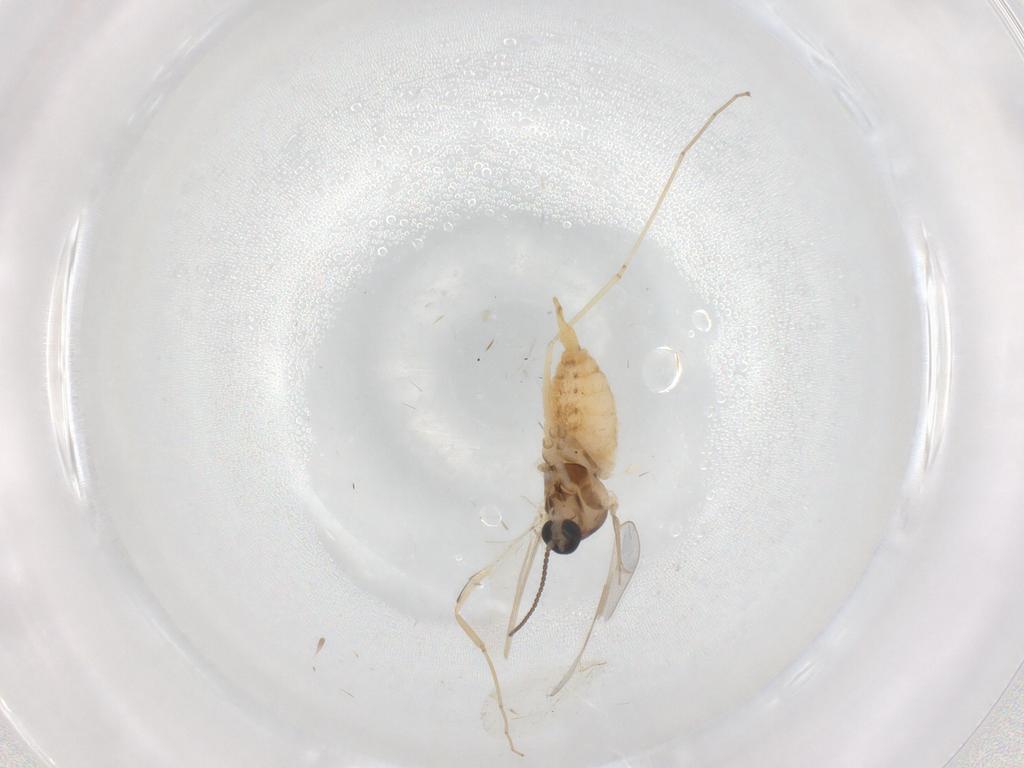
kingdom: Animalia
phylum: Arthropoda
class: Insecta
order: Diptera
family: Cecidomyiidae
